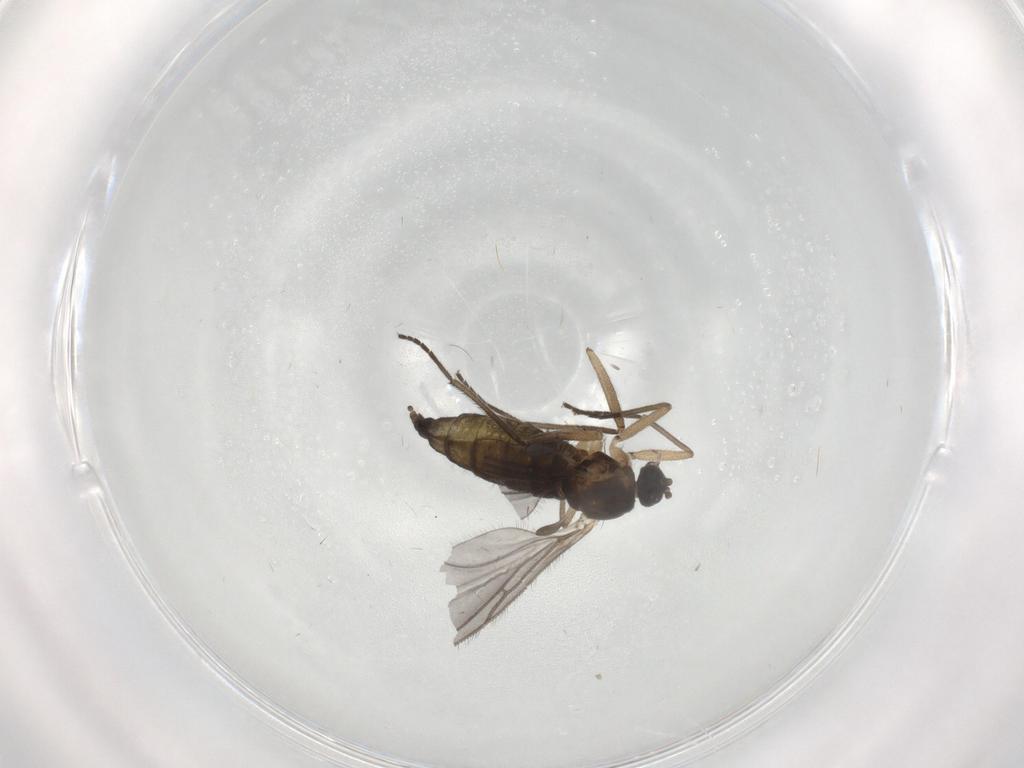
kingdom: Animalia
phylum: Arthropoda
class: Insecta
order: Diptera
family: Sciaridae
